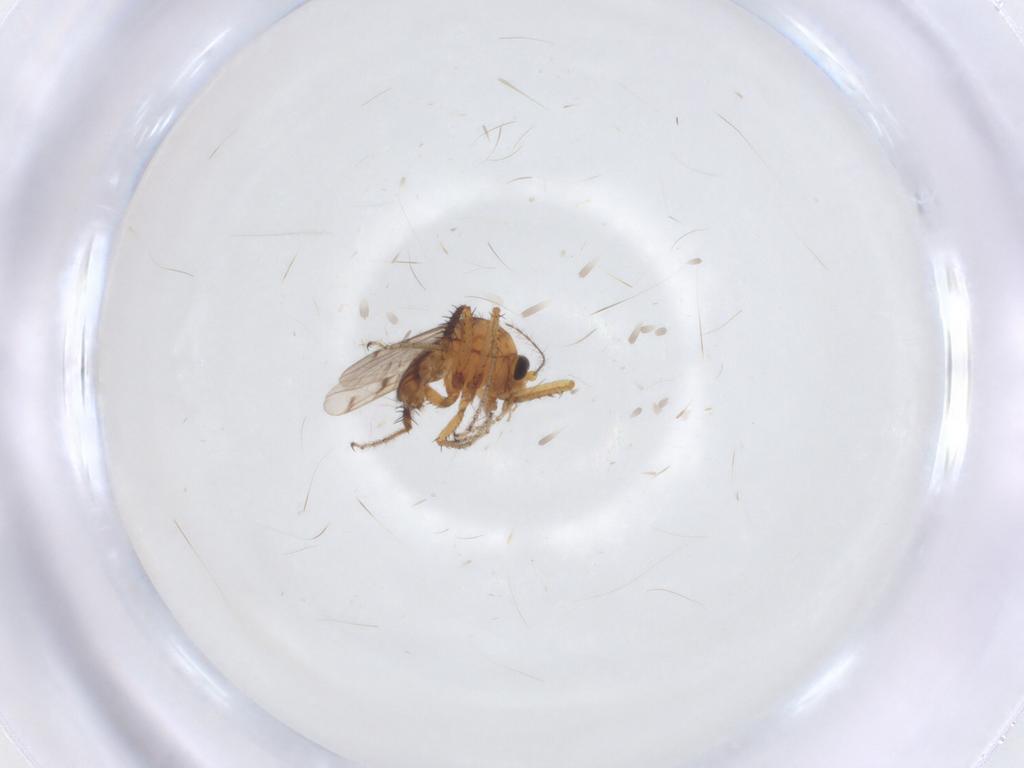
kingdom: Animalia
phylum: Arthropoda
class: Insecta
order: Diptera
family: Ceratopogonidae
